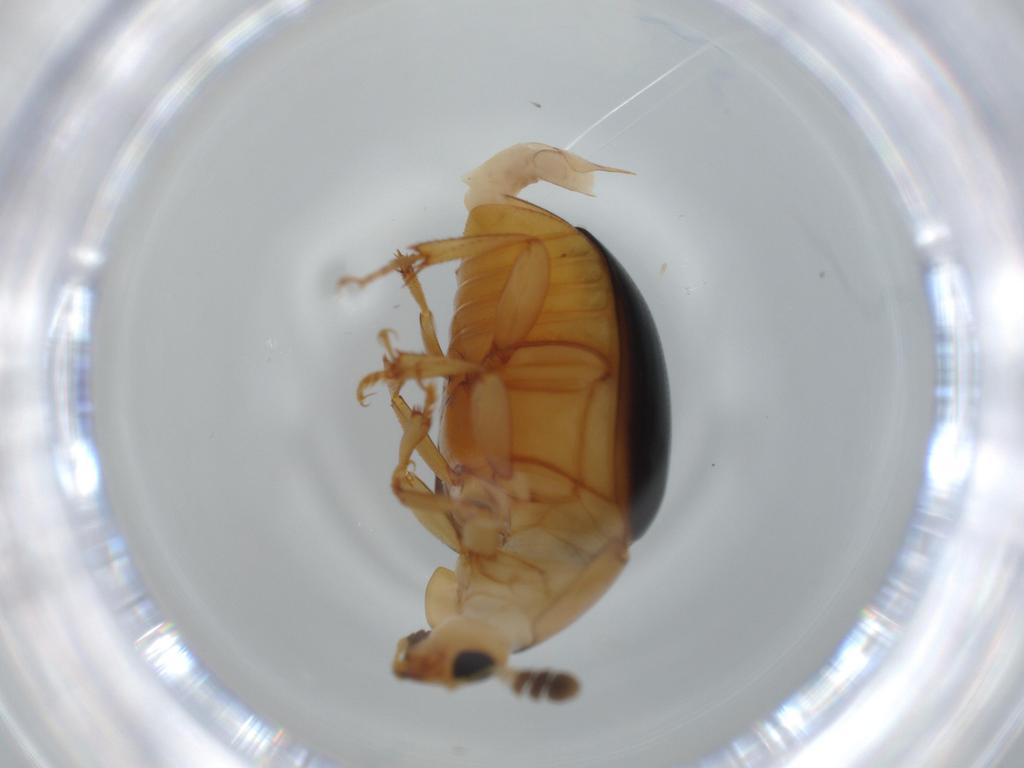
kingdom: Animalia
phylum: Arthropoda
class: Insecta
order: Coleoptera
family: Nitidulidae
